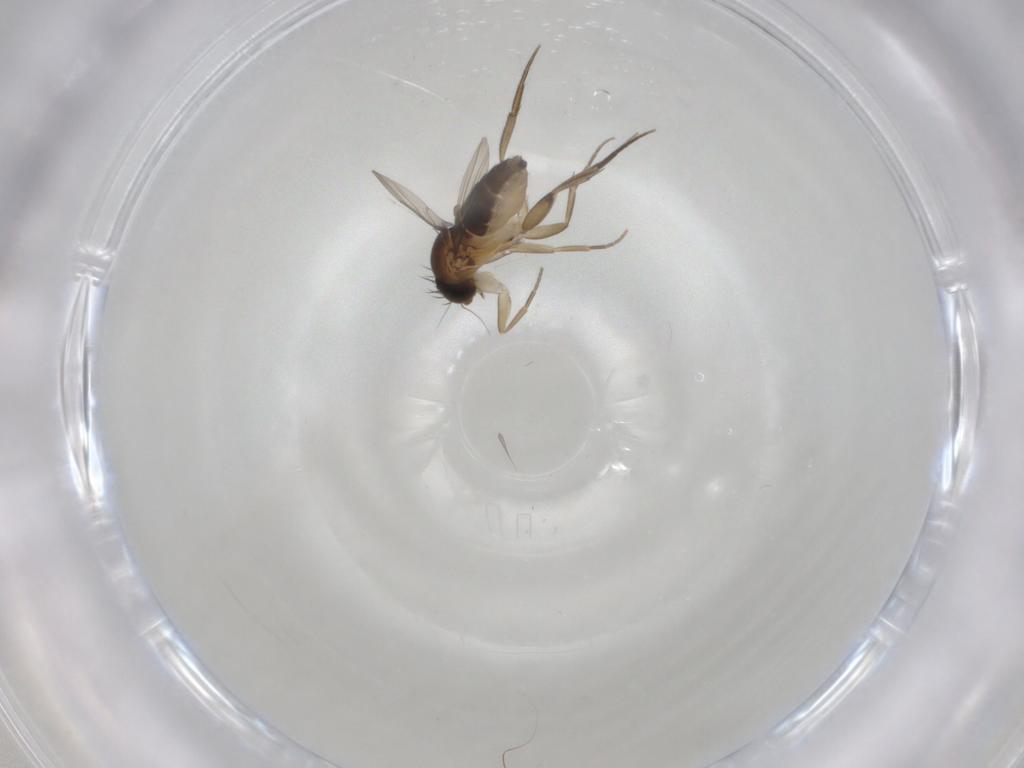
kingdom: Animalia
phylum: Arthropoda
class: Insecta
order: Diptera
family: Phoridae
